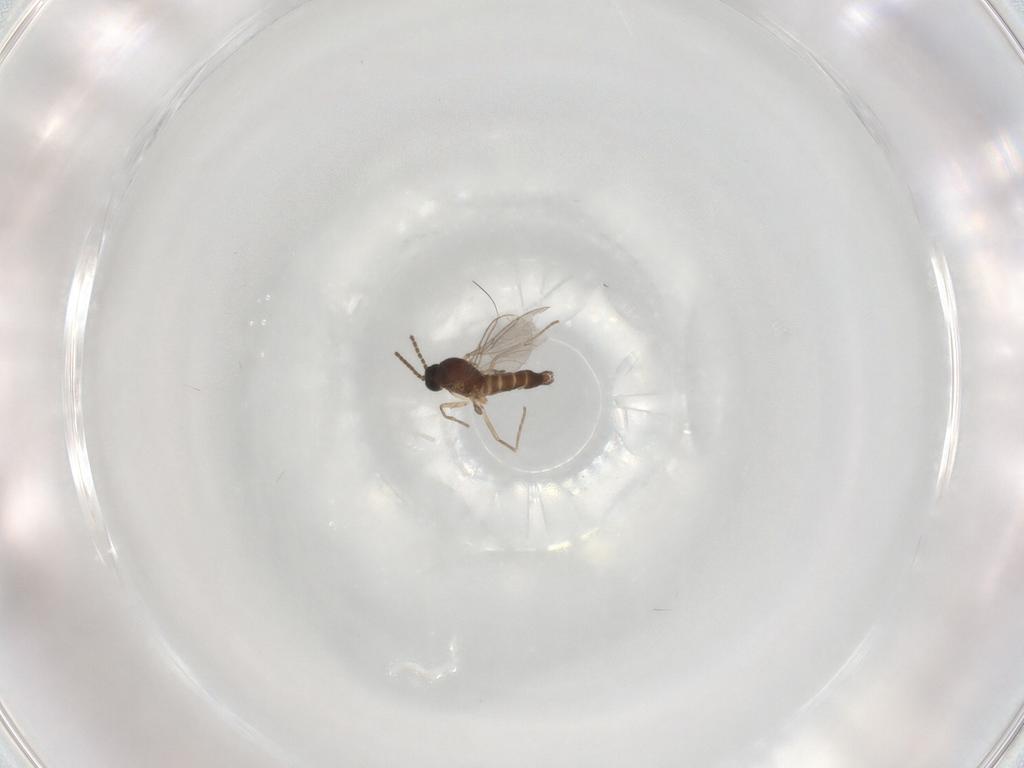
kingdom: Animalia
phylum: Arthropoda
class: Insecta
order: Diptera
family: Sciaridae
